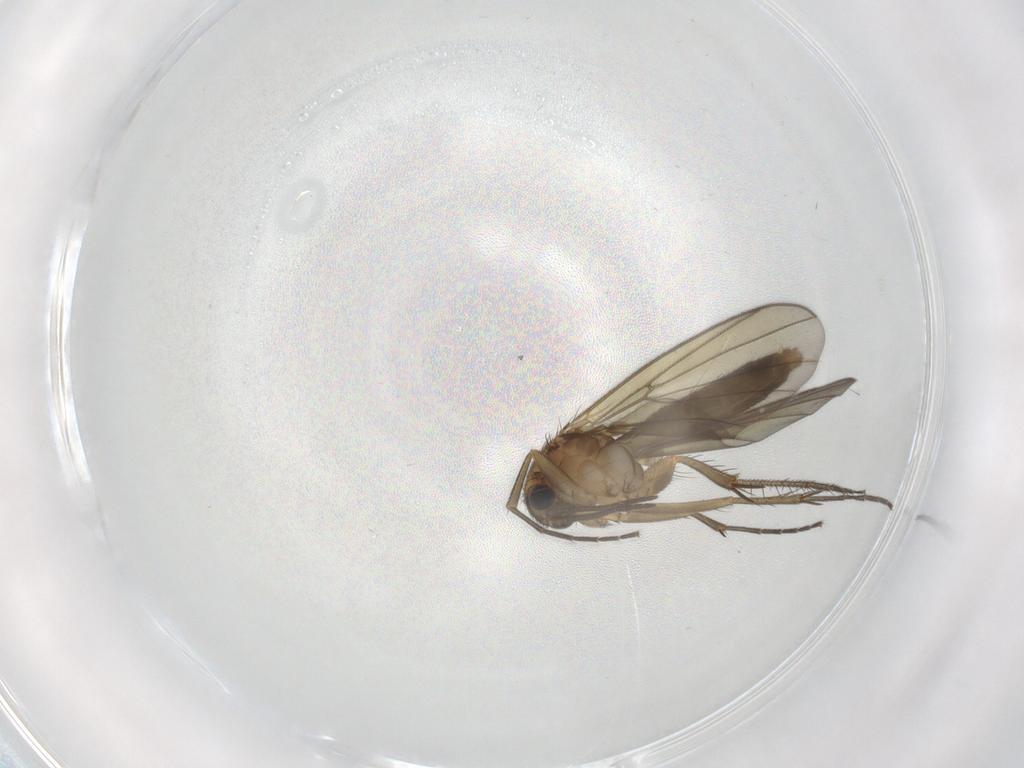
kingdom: Animalia
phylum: Arthropoda
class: Insecta
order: Diptera
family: Mycetophilidae
